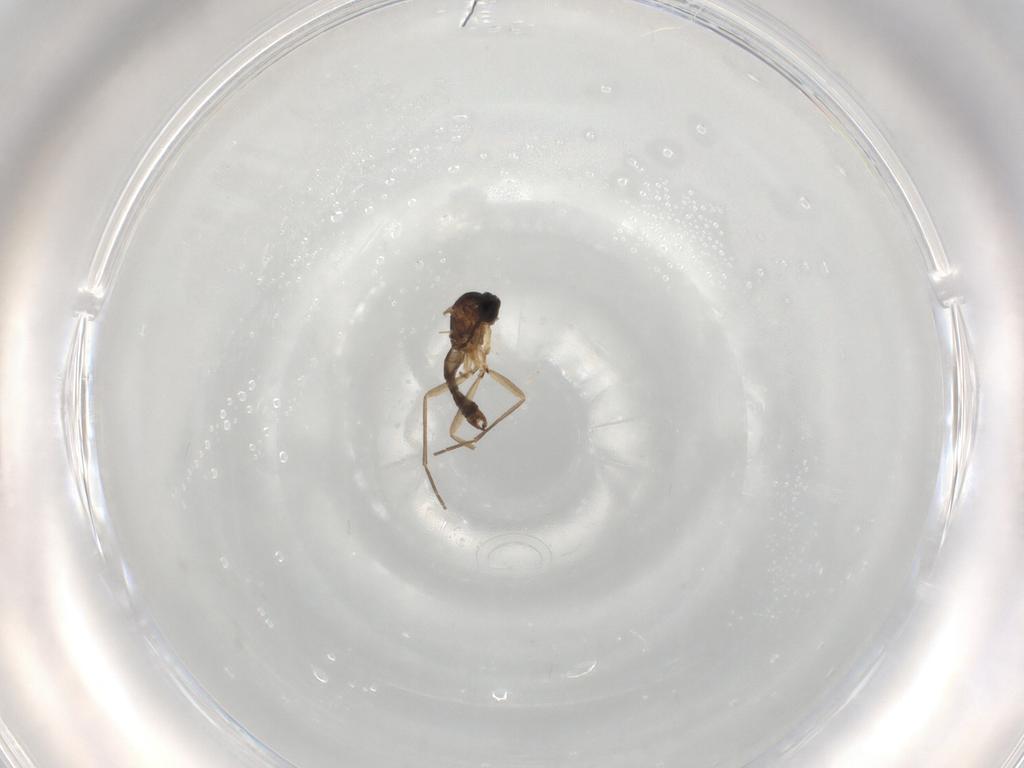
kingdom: Animalia
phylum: Arthropoda
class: Insecta
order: Diptera
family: Sciaridae
